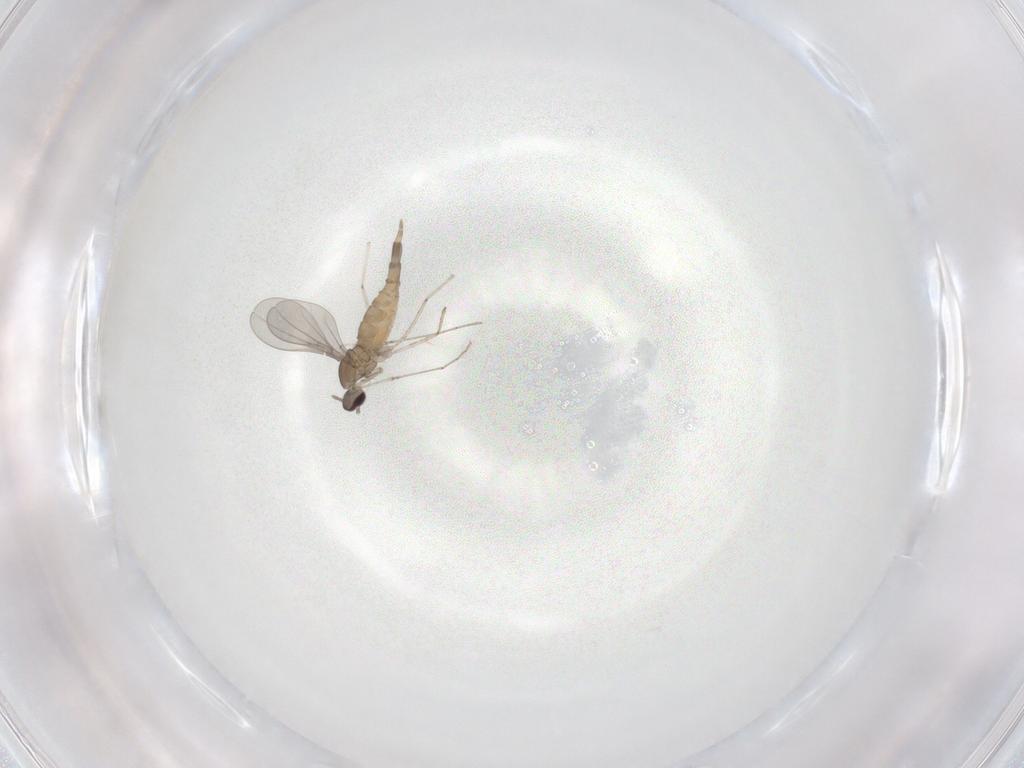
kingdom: Animalia
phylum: Arthropoda
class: Insecta
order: Diptera
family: Cecidomyiidae
